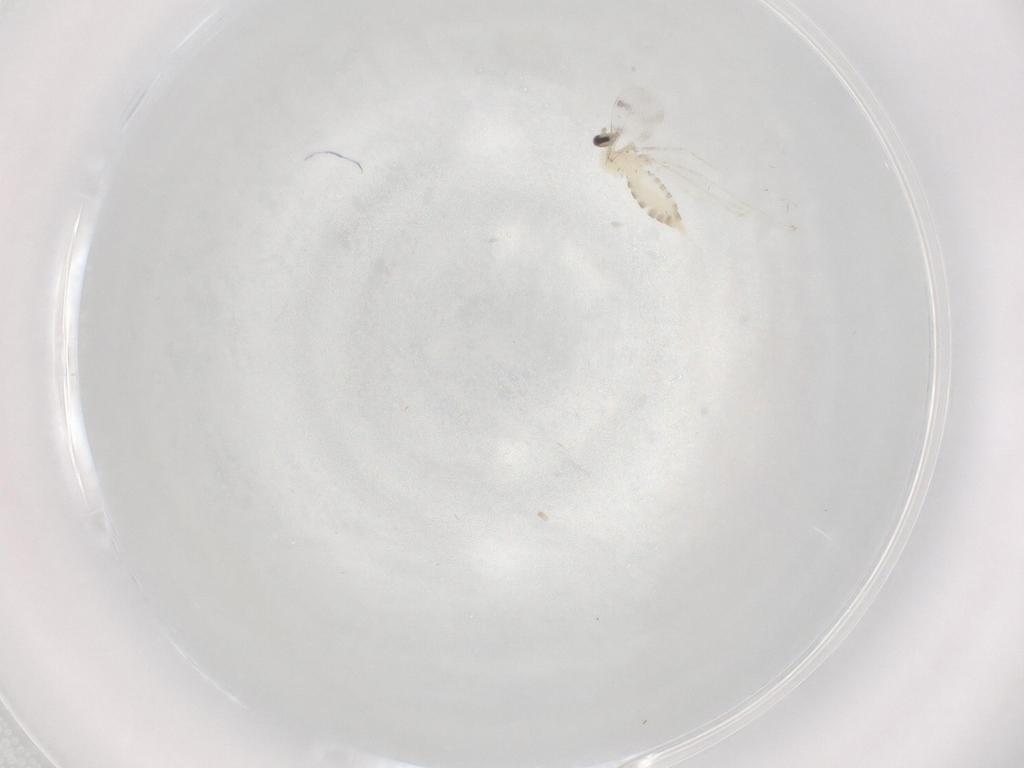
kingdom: Animalia
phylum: Arthropoda
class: Insecta
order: Diptera
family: Cecidomyiidae
